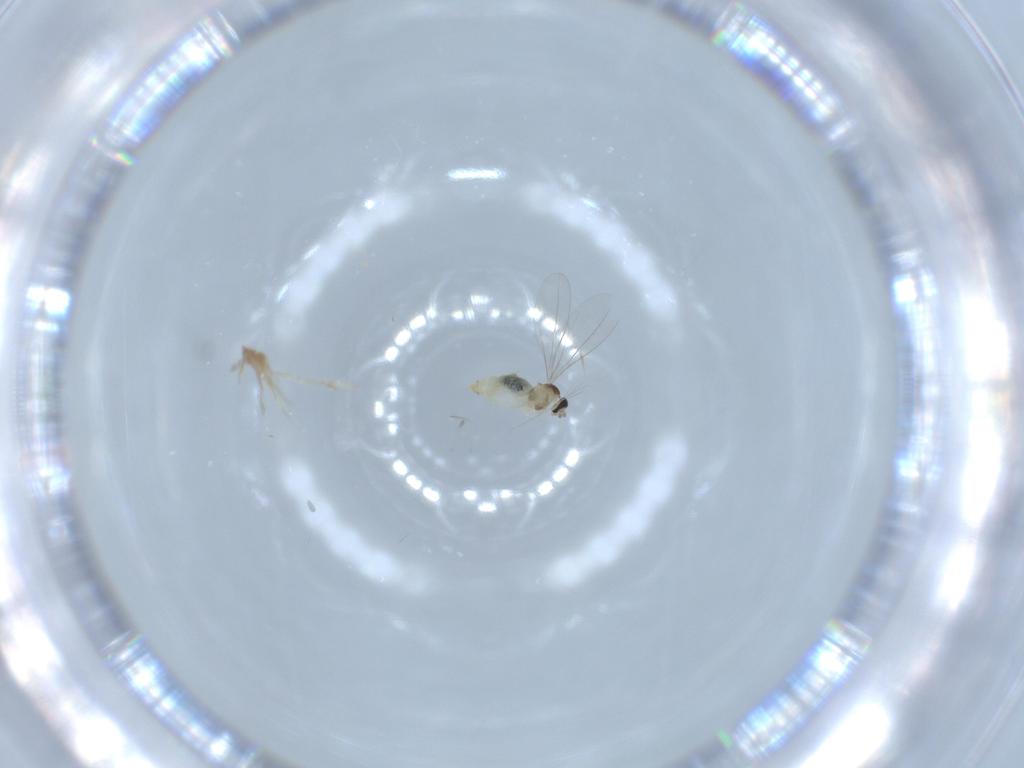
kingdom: Animalia
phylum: Arthropoda
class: Insecta
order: Diptera
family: Cecidomyiidae
